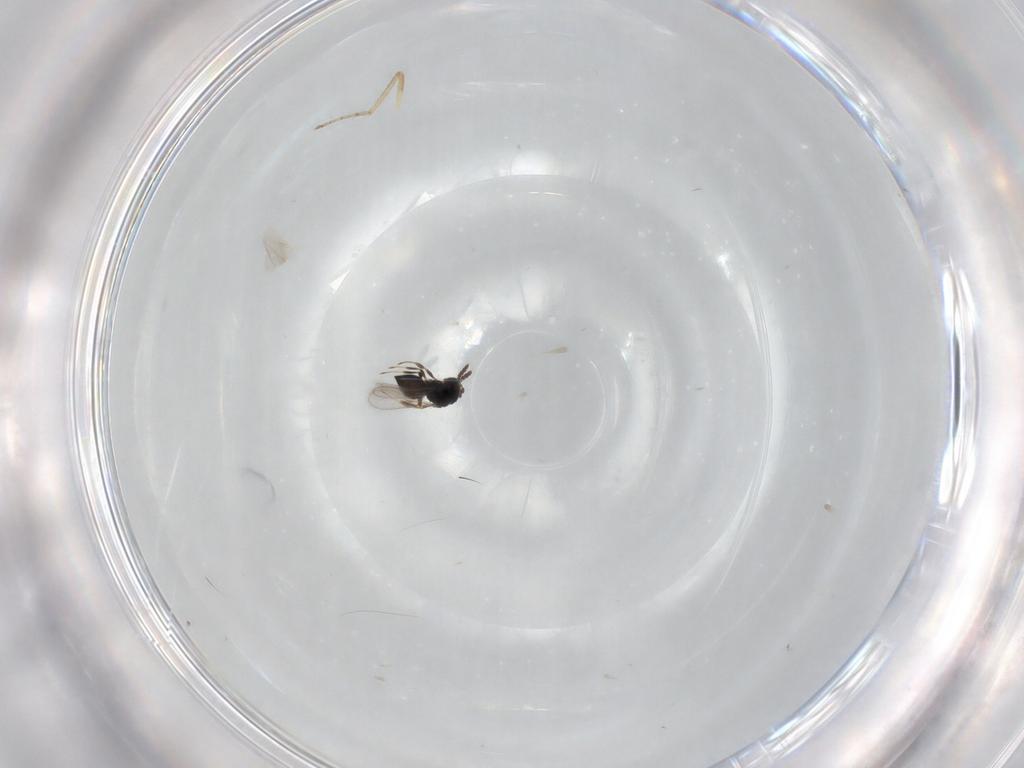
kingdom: Animalia
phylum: Arthropoda
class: Insecta
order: Hymenoptera
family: Scelionidae
